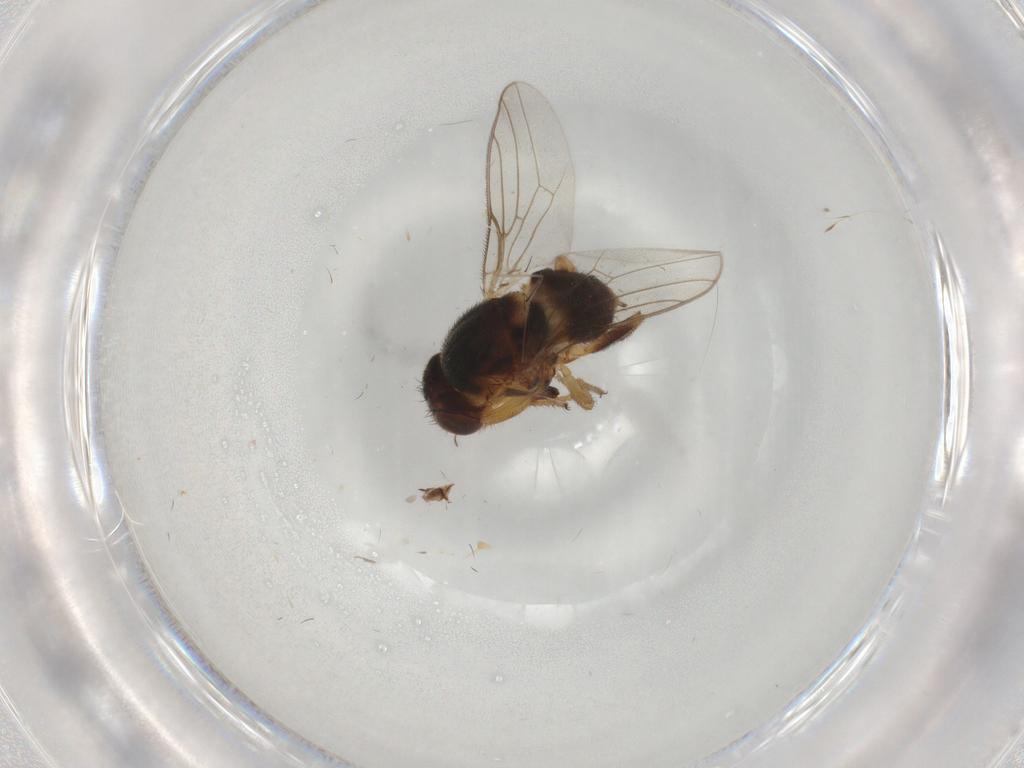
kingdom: Animalia
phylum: Arthropoda
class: Insecta
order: Diptera
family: Chloropidae
